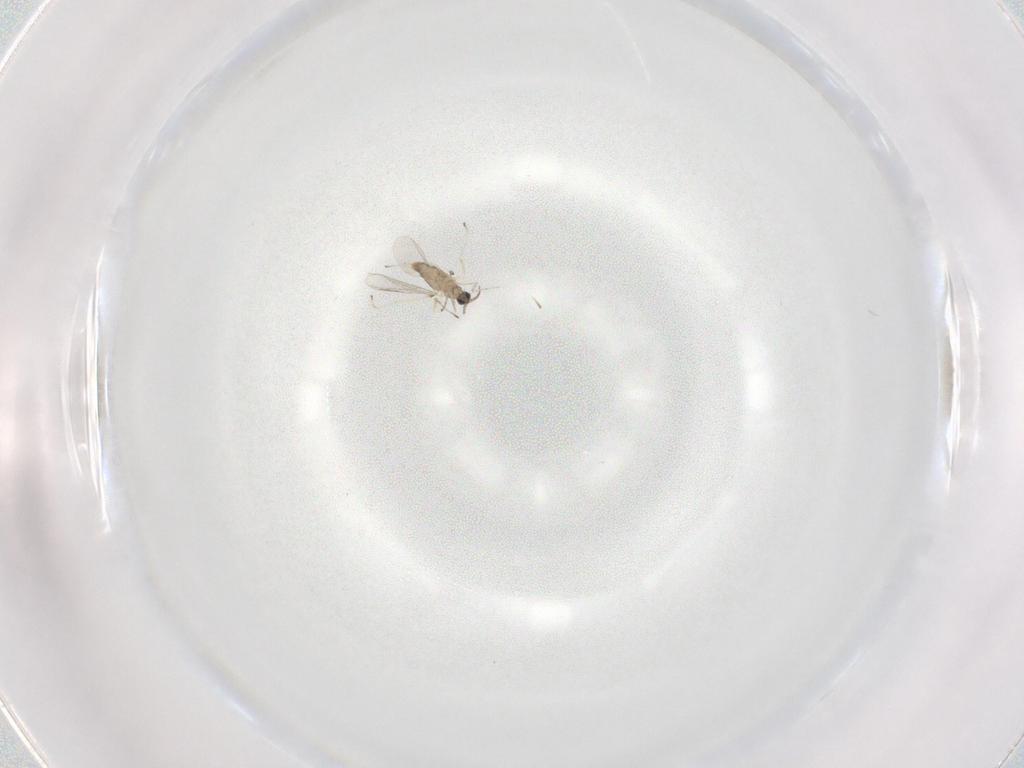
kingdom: Animalia
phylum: Arthropoda
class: Insecta
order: Diptera
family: Cecidomyiidae
